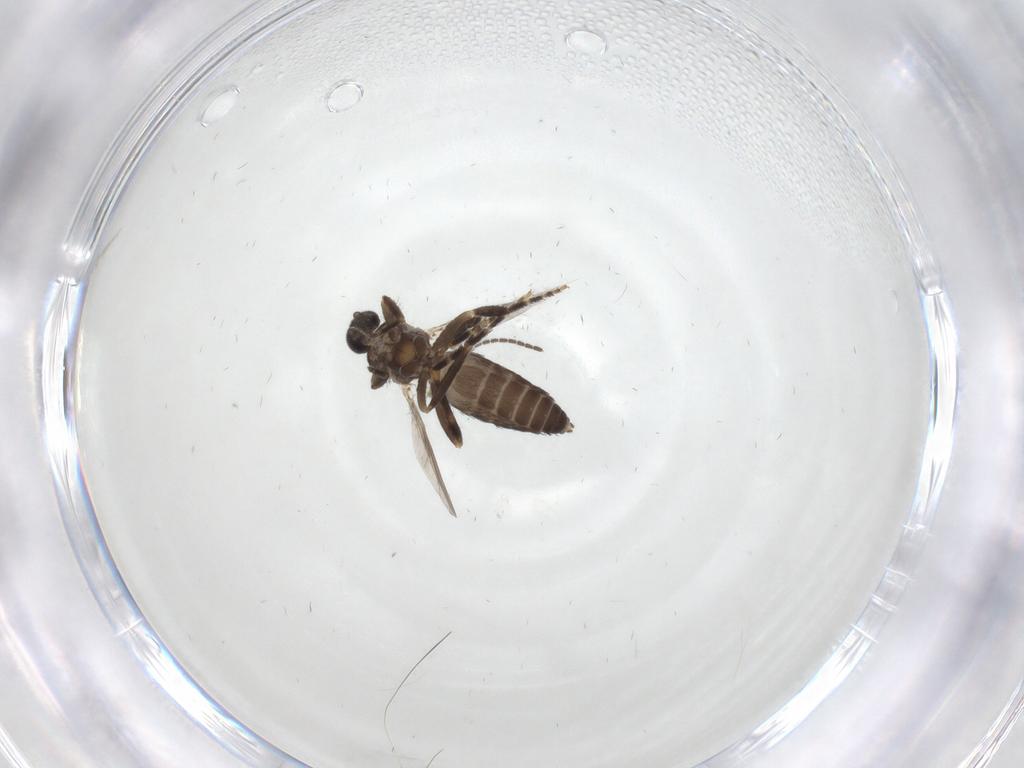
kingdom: Animalia
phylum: Arthropoda
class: Insecta
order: Diptera
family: Ceratopogonidae
